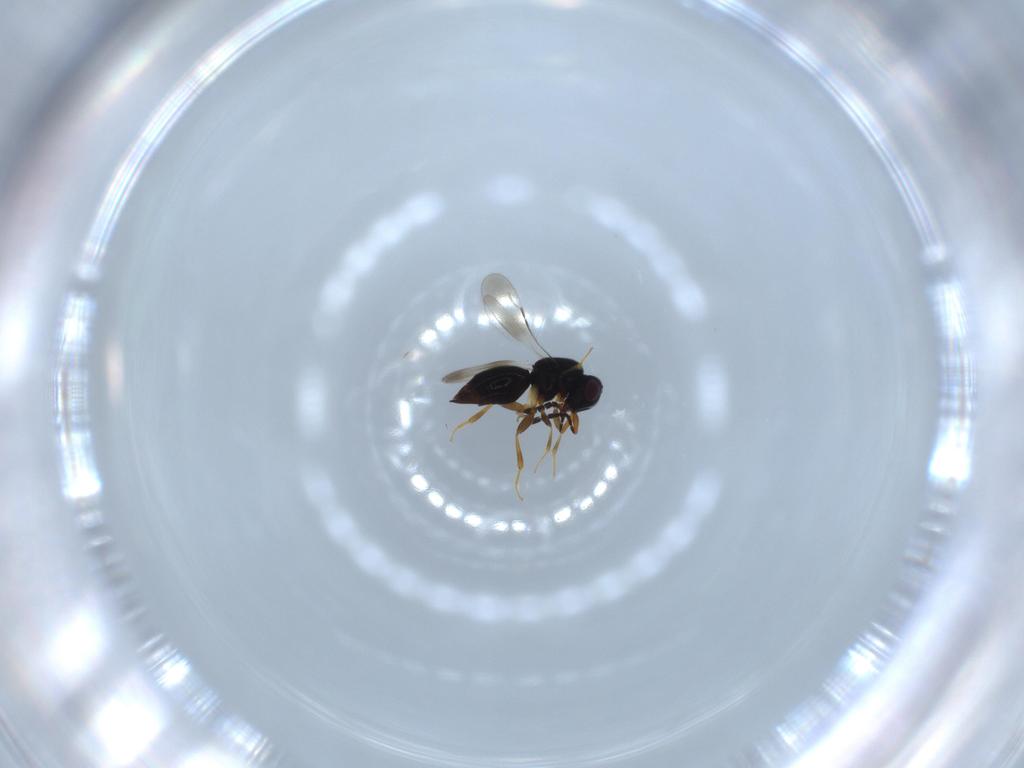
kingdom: Animalia
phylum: Arthropoda
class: Insecta
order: Hymenoptera
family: Ceraphronidae
